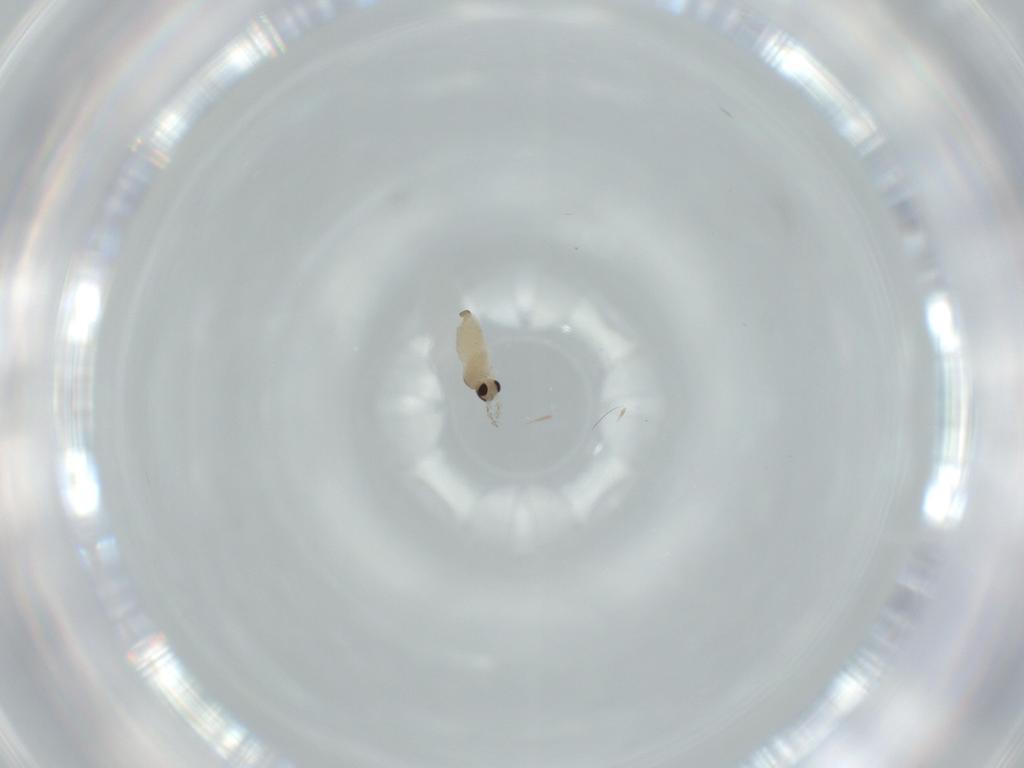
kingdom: Animalia
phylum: Arthropoda
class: Insecta
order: Diptera
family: Cecidomyiidae
